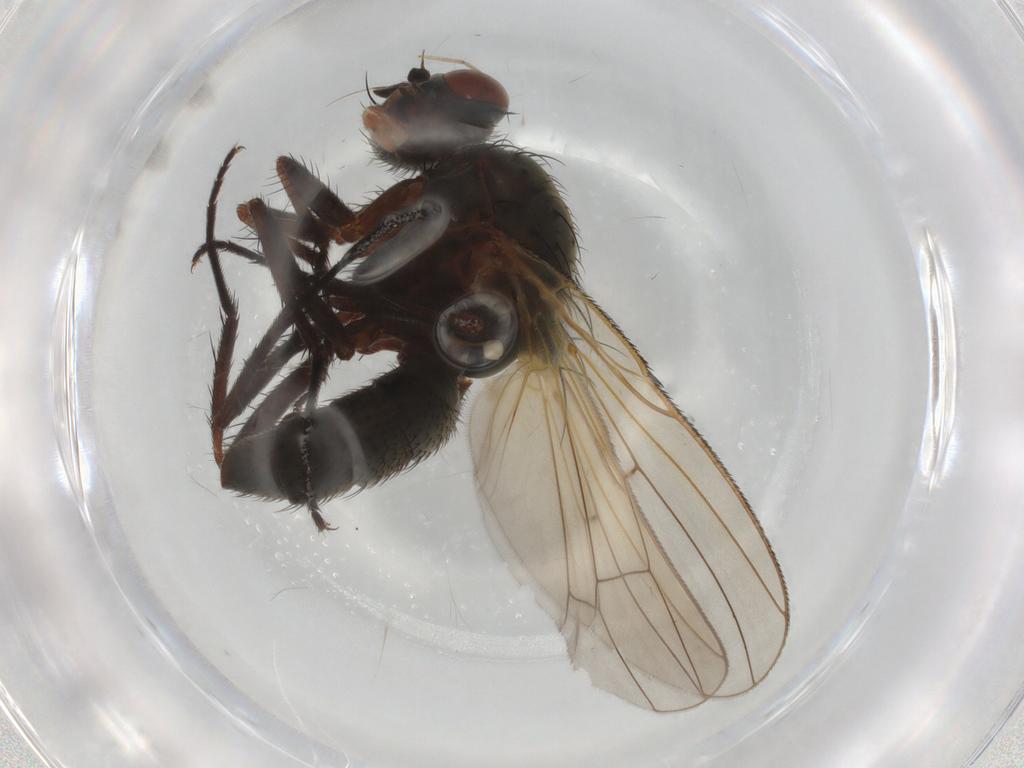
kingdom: Animalia
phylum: Arthropoda
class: Insecta
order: Diptera
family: Anthomyiidae
